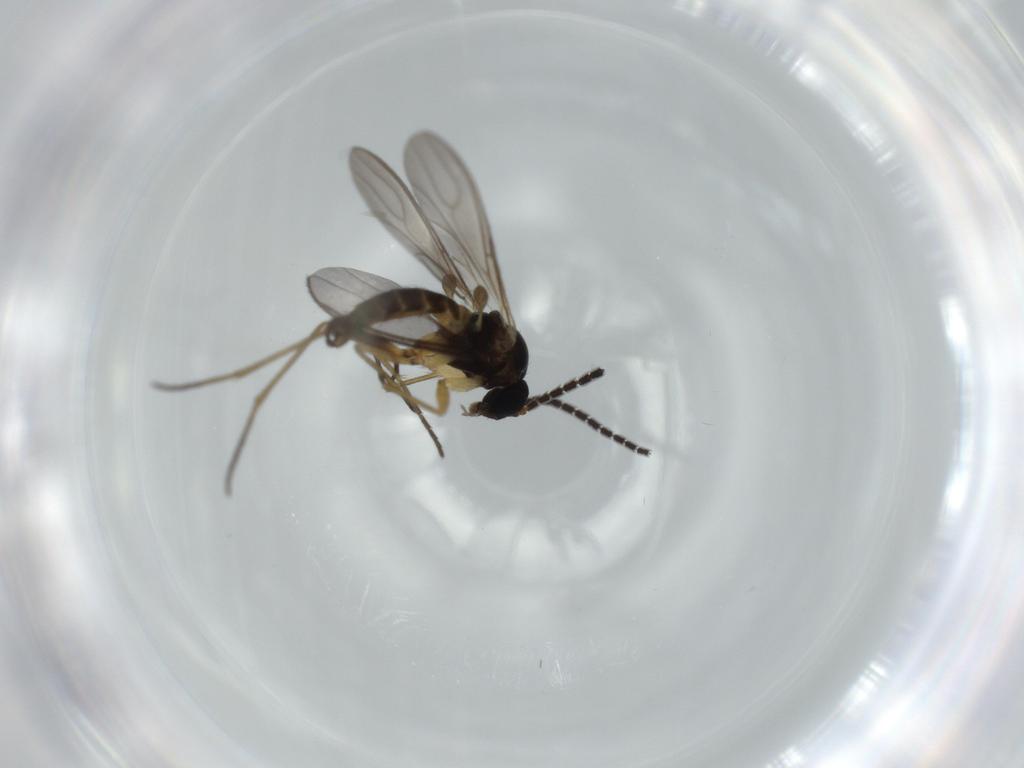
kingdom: Animalia
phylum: Arthropoda
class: Insecta
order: Diptera
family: Sciaridae
